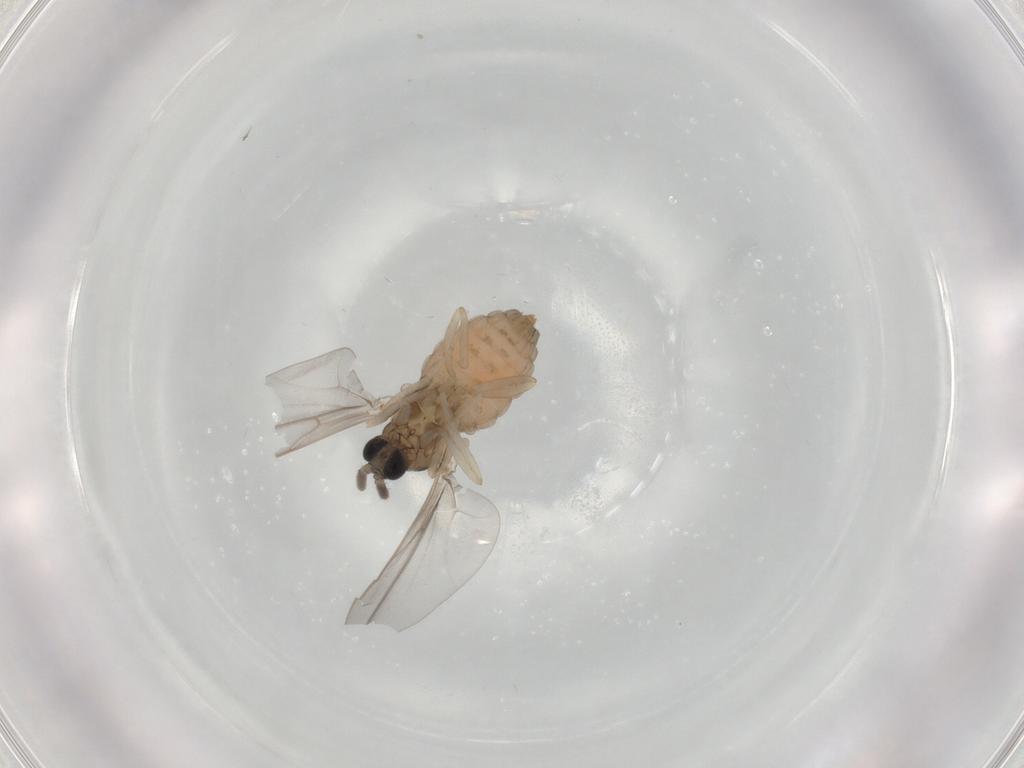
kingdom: Animalia
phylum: Arthropoda
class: Insecta
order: Diptera
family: Cecidomyiidae
